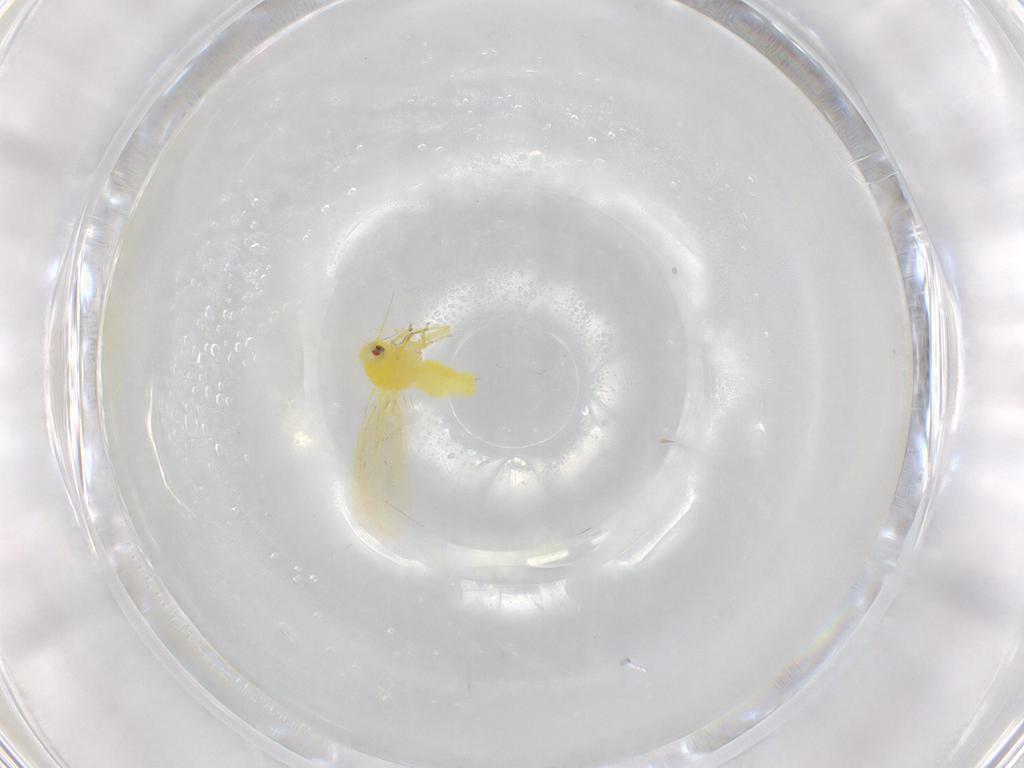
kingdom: Animalia
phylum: Arthropoda
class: Insecta
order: Hemiptera
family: Aleyrodidae
